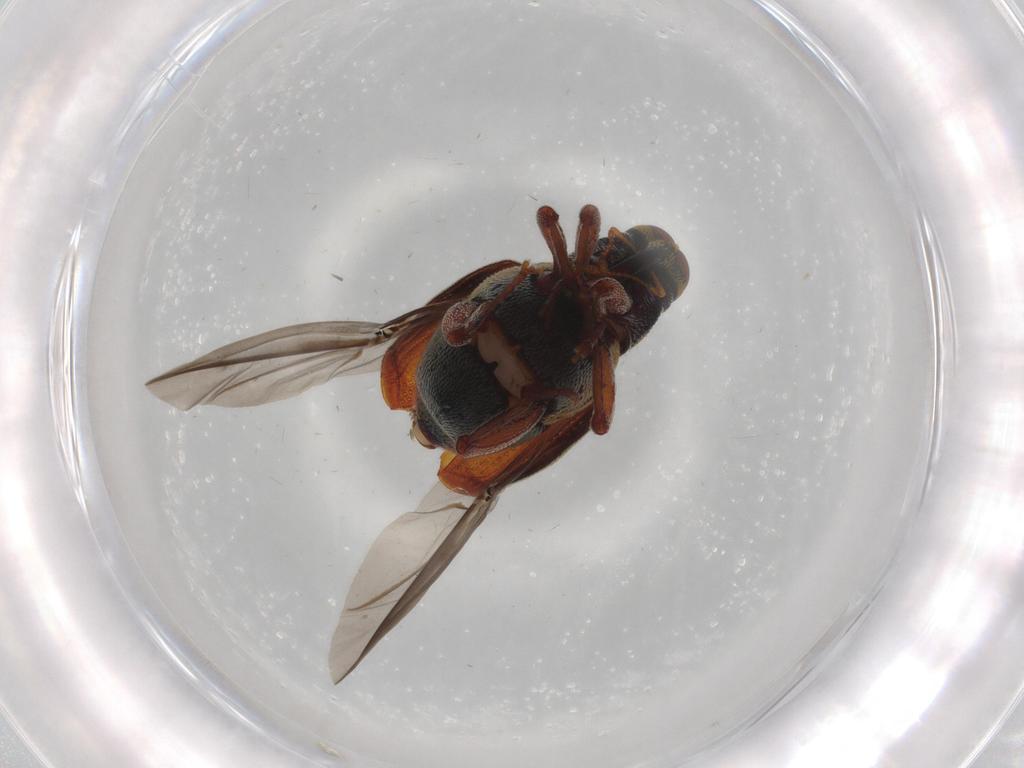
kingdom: Animalia
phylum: Arthropoda
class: Insecta
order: Coleoptera
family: Curculionidae
